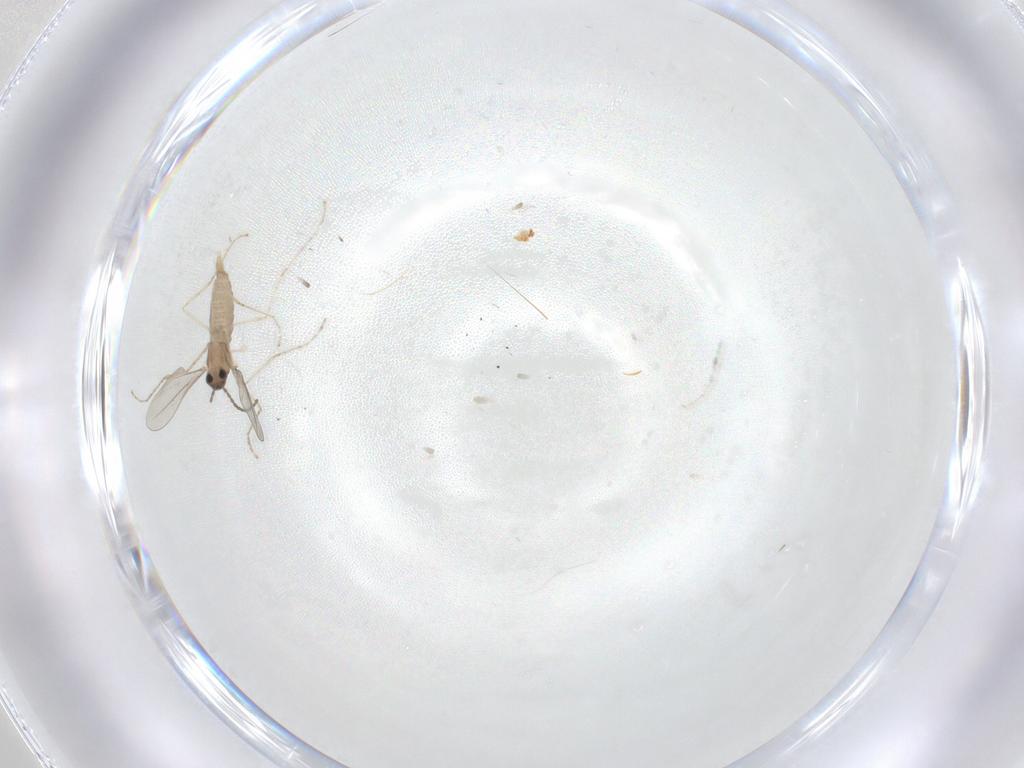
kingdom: Animalia
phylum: Arthropoda
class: Insecta
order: Diptera
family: Cecidomyiidae
